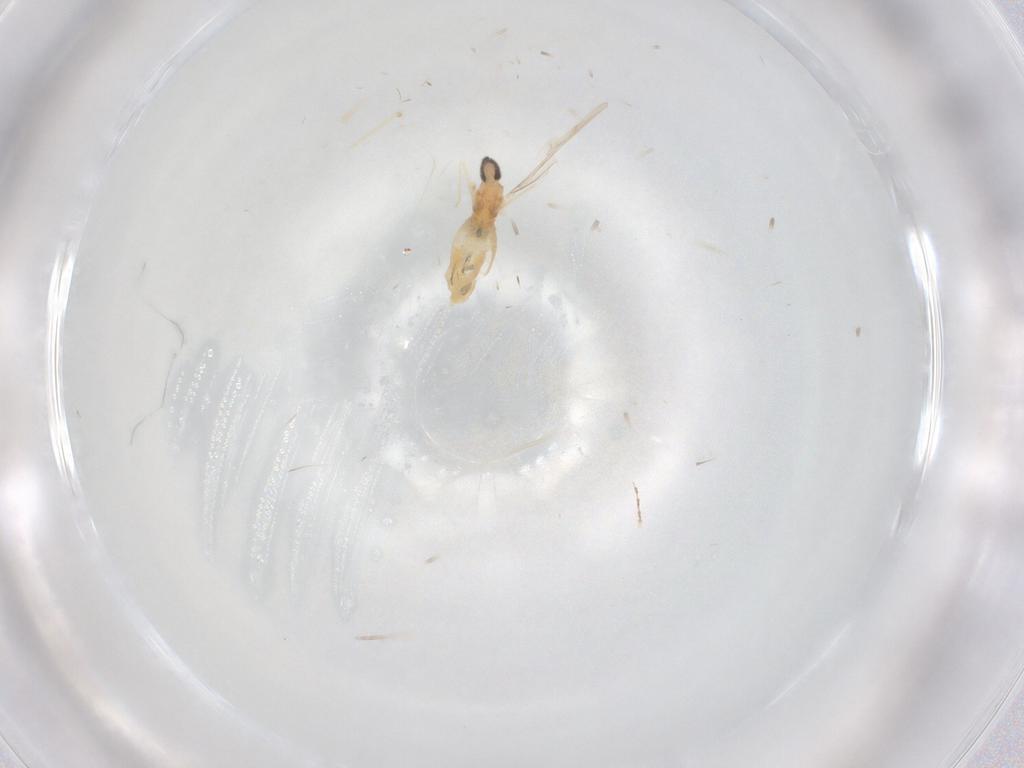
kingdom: Animalia
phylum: Arthropoda
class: Insecta
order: Diptera
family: Cecidomyiidae
